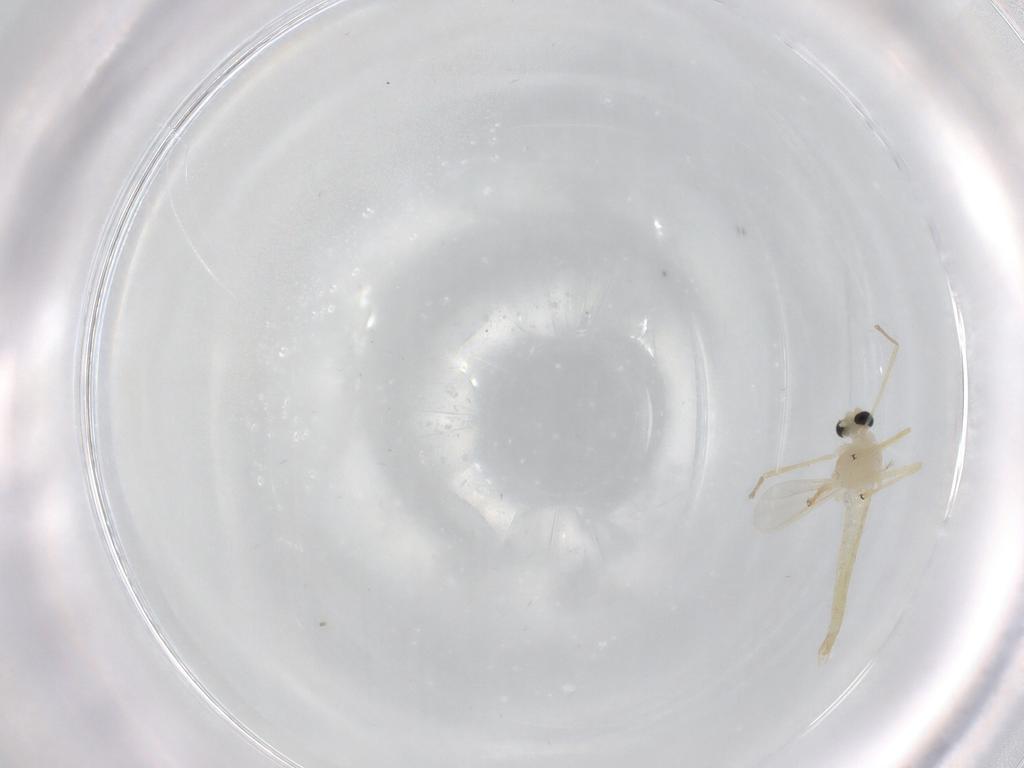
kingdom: Animalia
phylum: Arthropoda
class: Insecta
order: Diptera
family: Chironomidae
